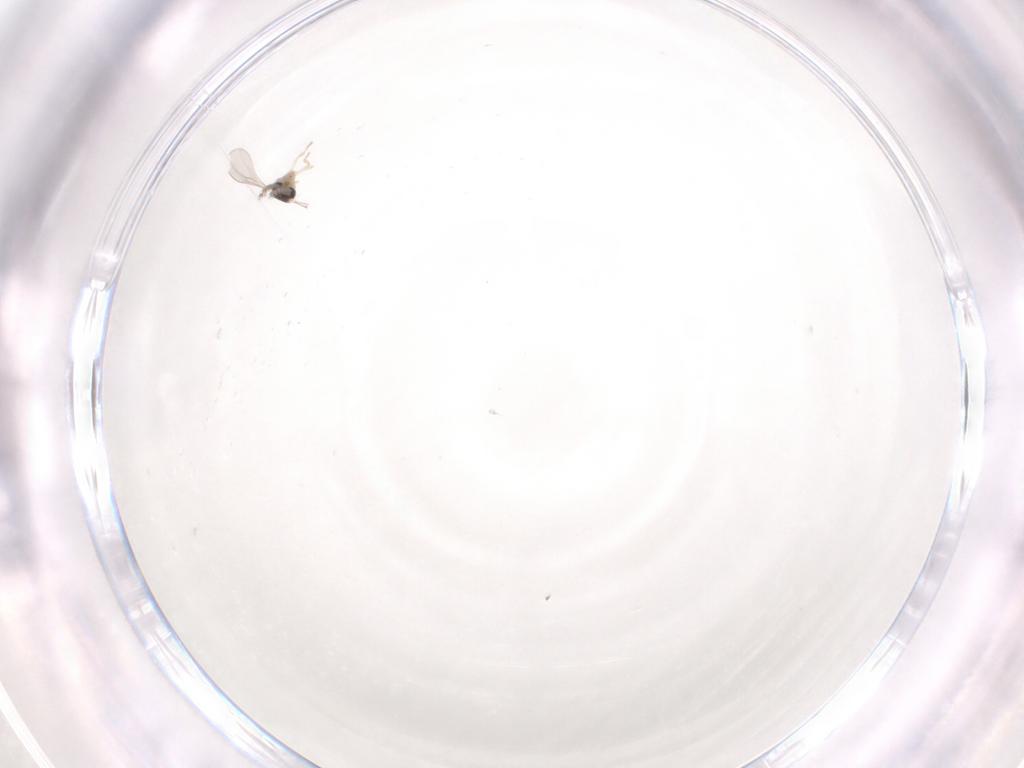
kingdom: Animalia
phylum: Arthropoda
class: Insecta
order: Diptera
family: Cecidomyiidae
